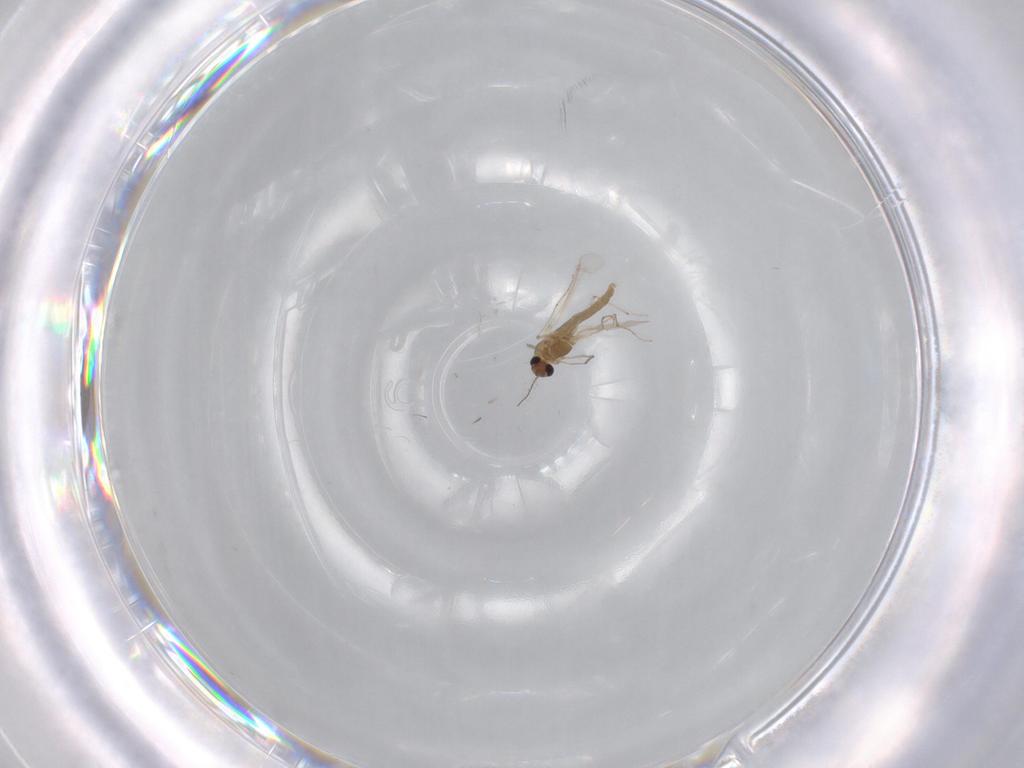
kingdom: Animalia
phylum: Arthropoda
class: Insecta
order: Diptera
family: Chironomidae
